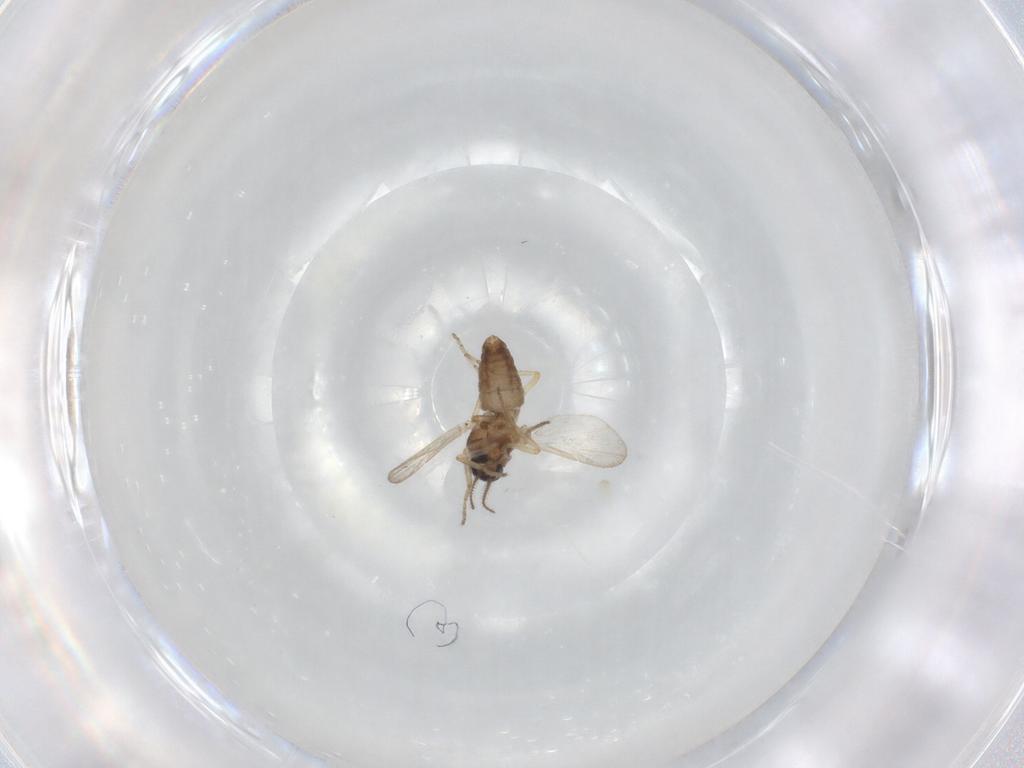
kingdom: Animalia
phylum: Arthropoda
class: Insecta
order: Diptera
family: Ceratopogonidae
